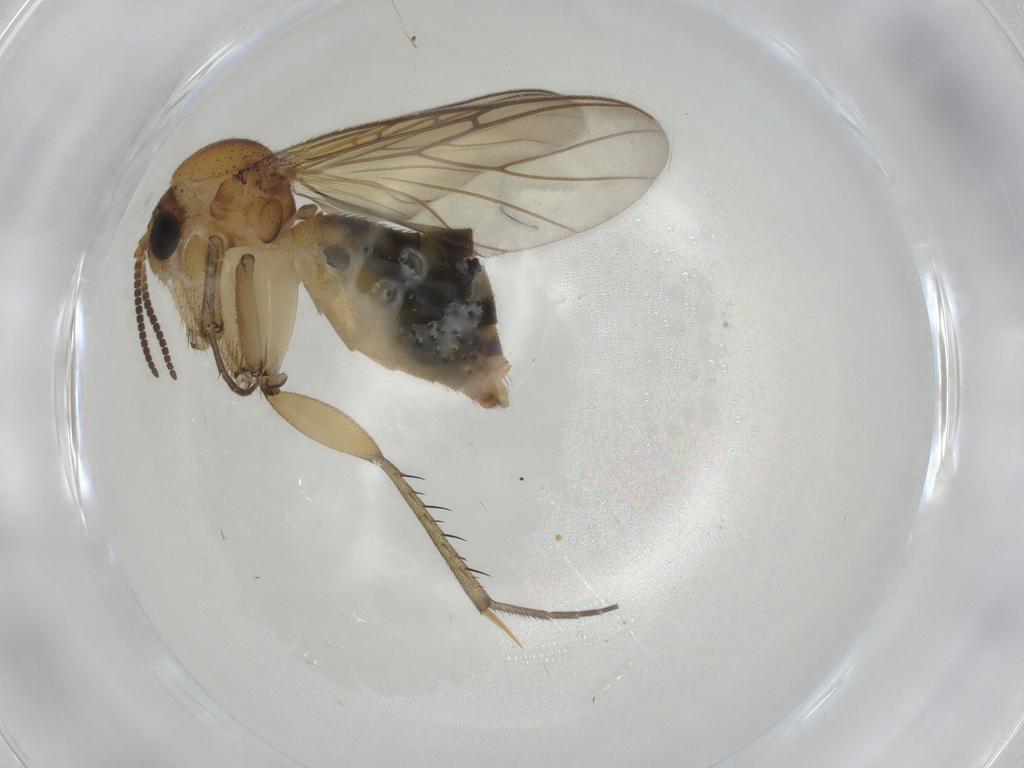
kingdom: Animalia
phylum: Arthropoda
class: Insecta
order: Diptera
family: Mycetophilidae
